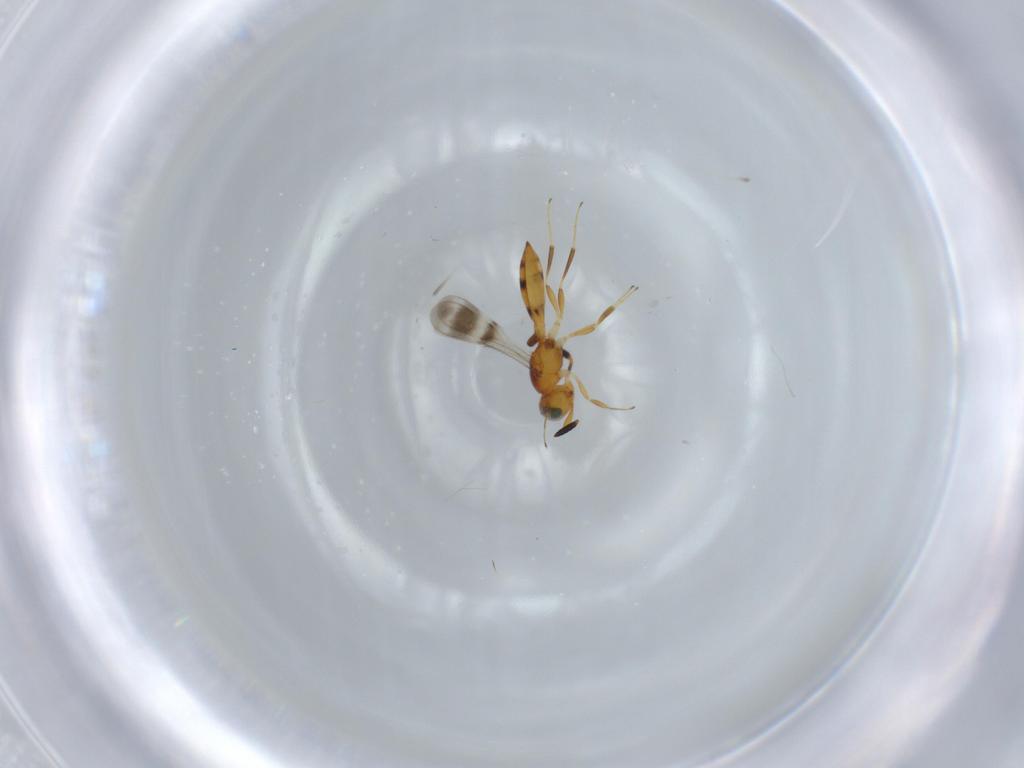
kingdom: Animalia
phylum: Arthropoda
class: Insecta
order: Hymenoptera
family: Scelionidae
